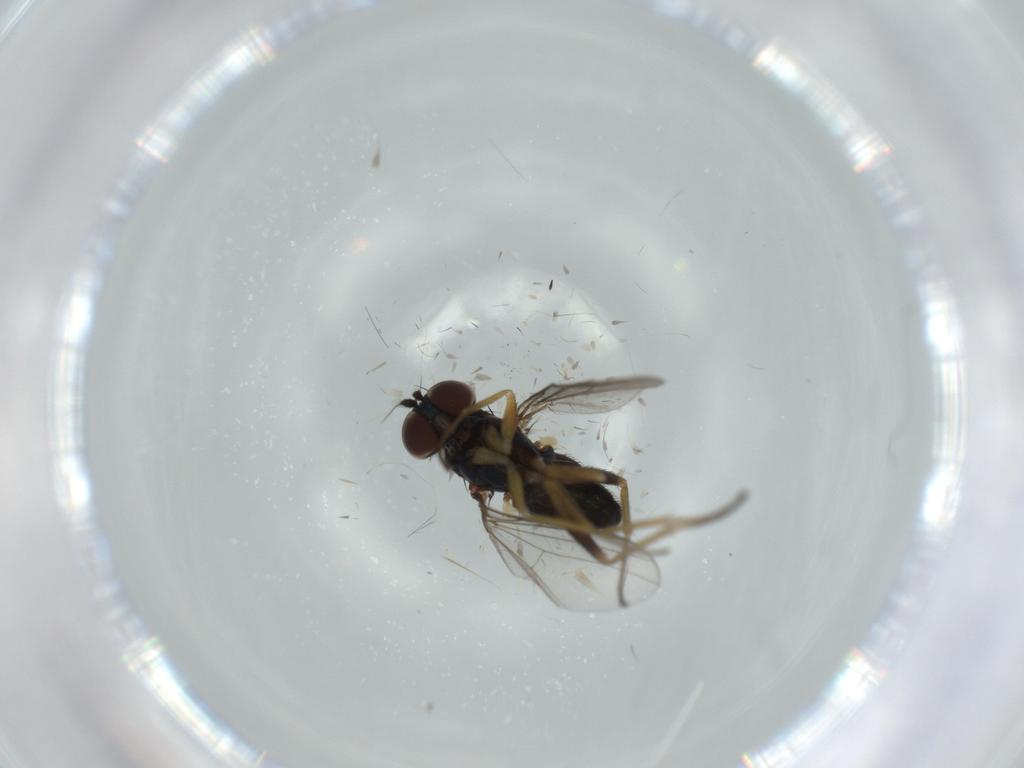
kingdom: Animalia
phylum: Arthropoda
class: Insecta
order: Diptera
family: Dolichopodidae
